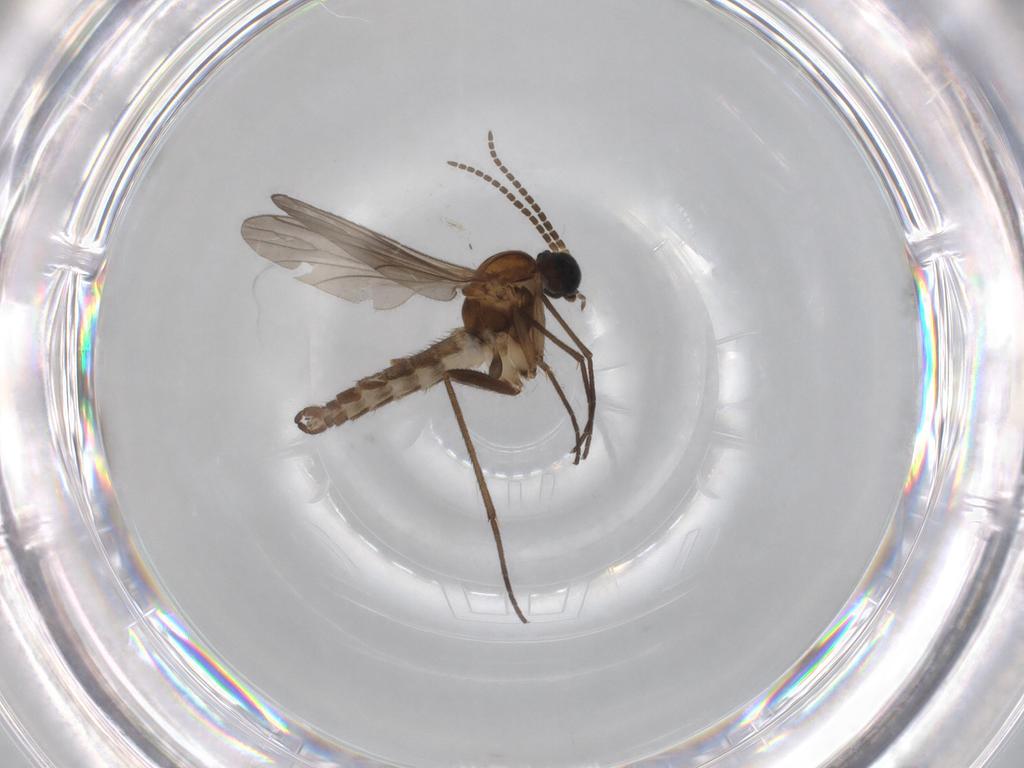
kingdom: Animalia
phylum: Arthropoda
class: Insecta
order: Diptera
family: Sciaridae
